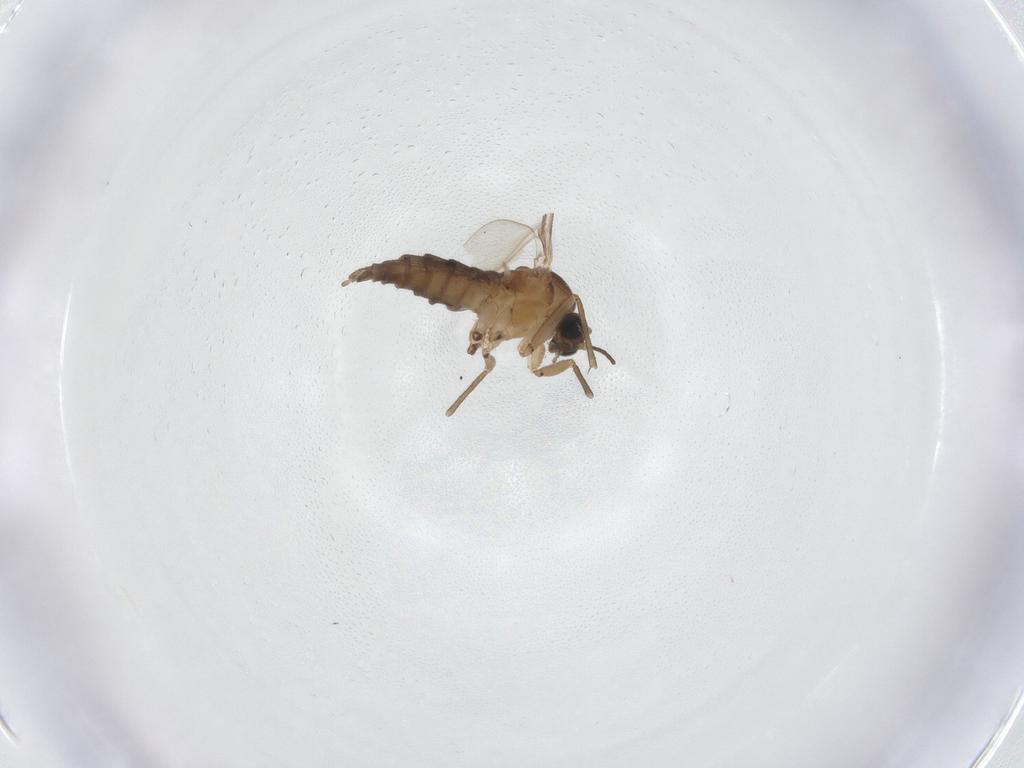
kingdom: Animalia
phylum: Arthropoda
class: Insecta
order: Diptera
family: Sciaridae
